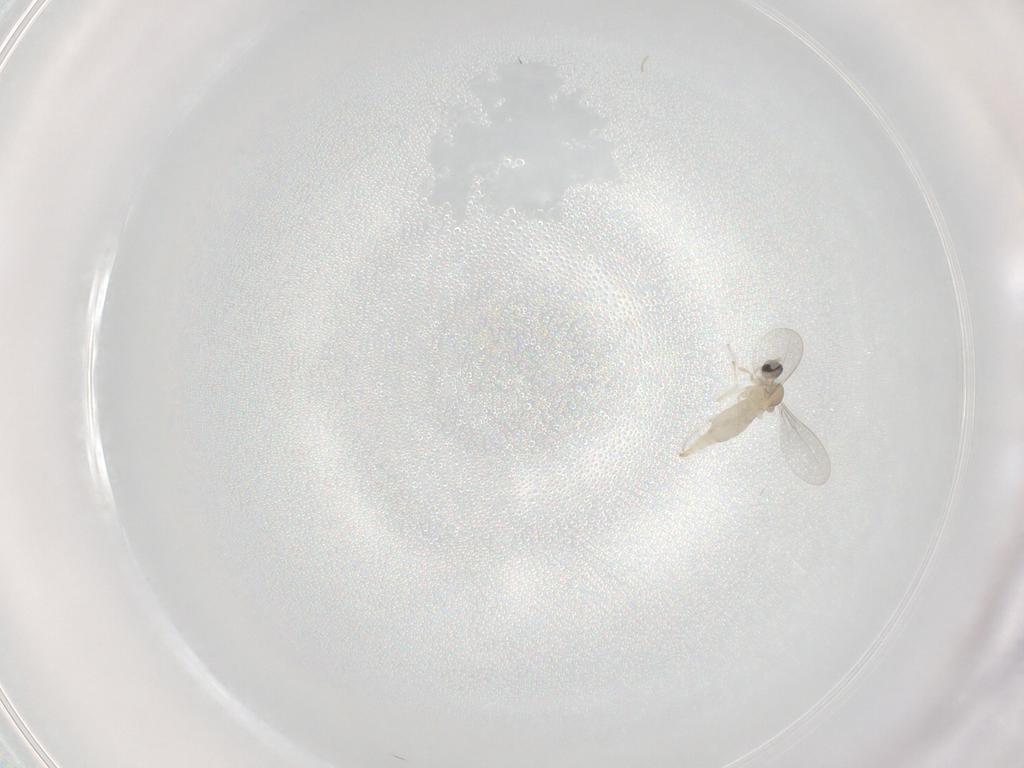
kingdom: Animalia
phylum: Arthropoda
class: Insecta
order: Diptera
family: Cecidomyiidae
